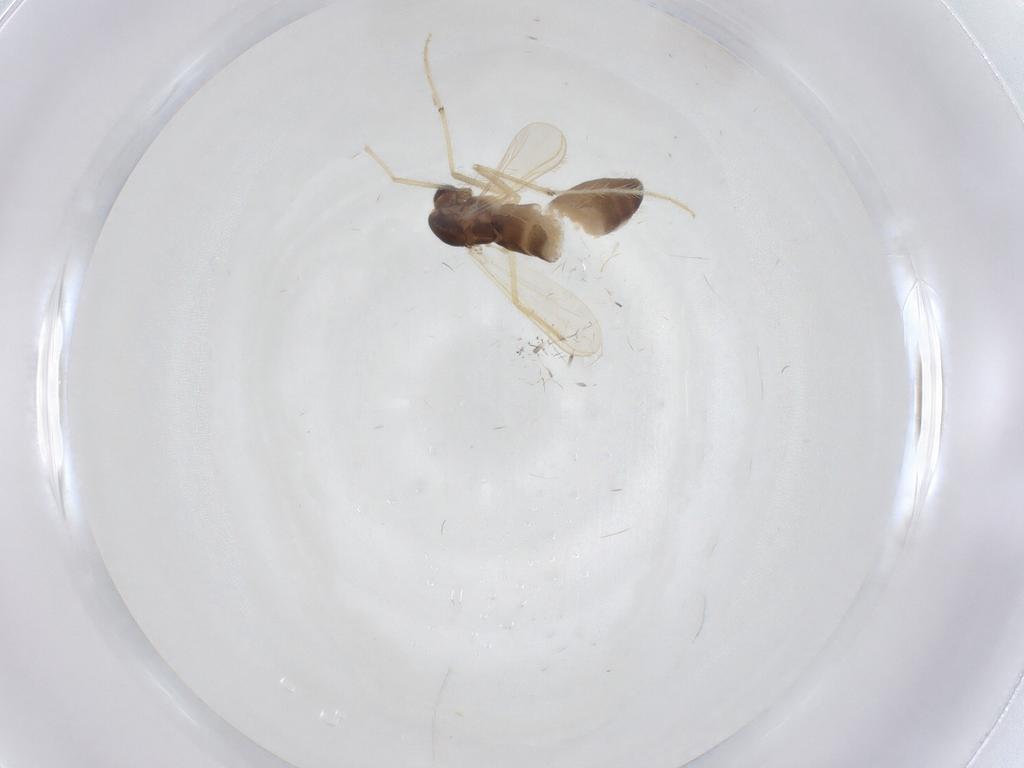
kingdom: Animalia
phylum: Arthropoda
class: Insecta
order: Diptera
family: Chironomidae
